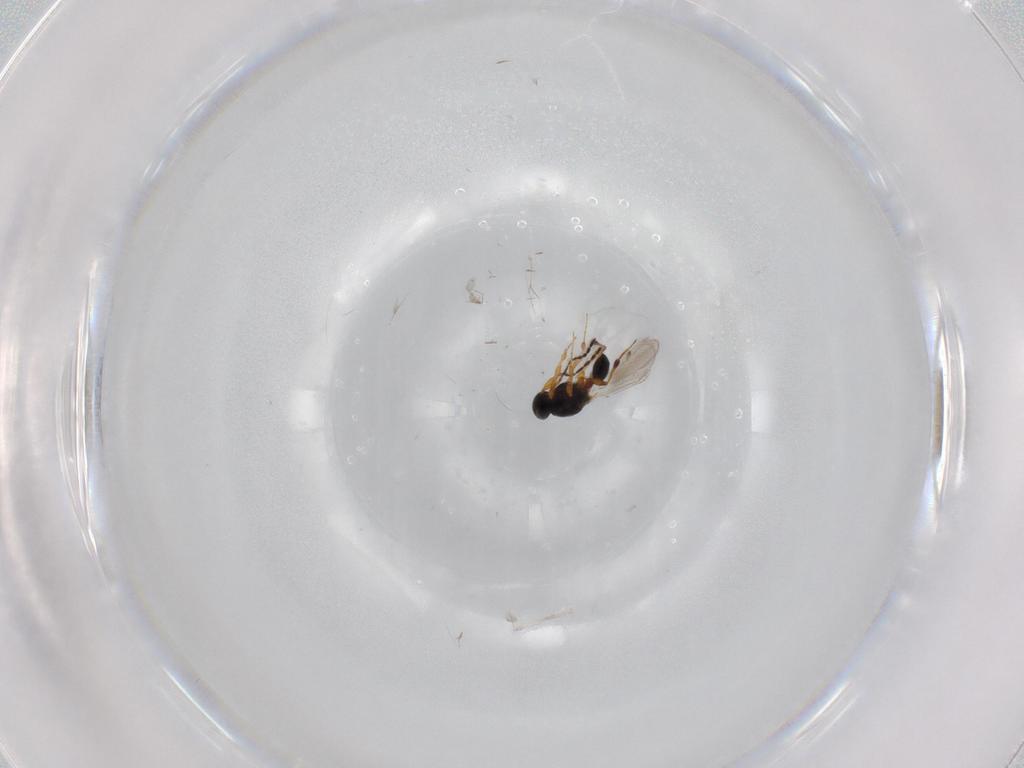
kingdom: Animalia
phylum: Arthropoda
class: Insecta
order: Hymenoptera
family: Platygastridae
